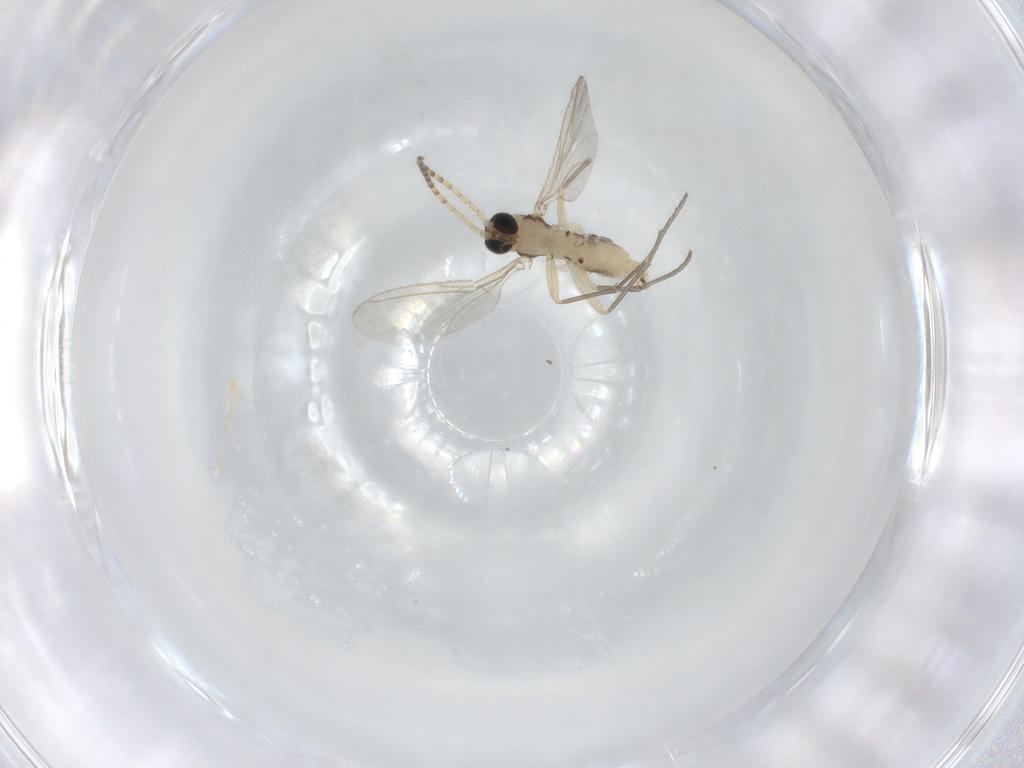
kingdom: Animalia
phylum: Arthropoda
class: Insecta
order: Diptera
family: Sciaridae
